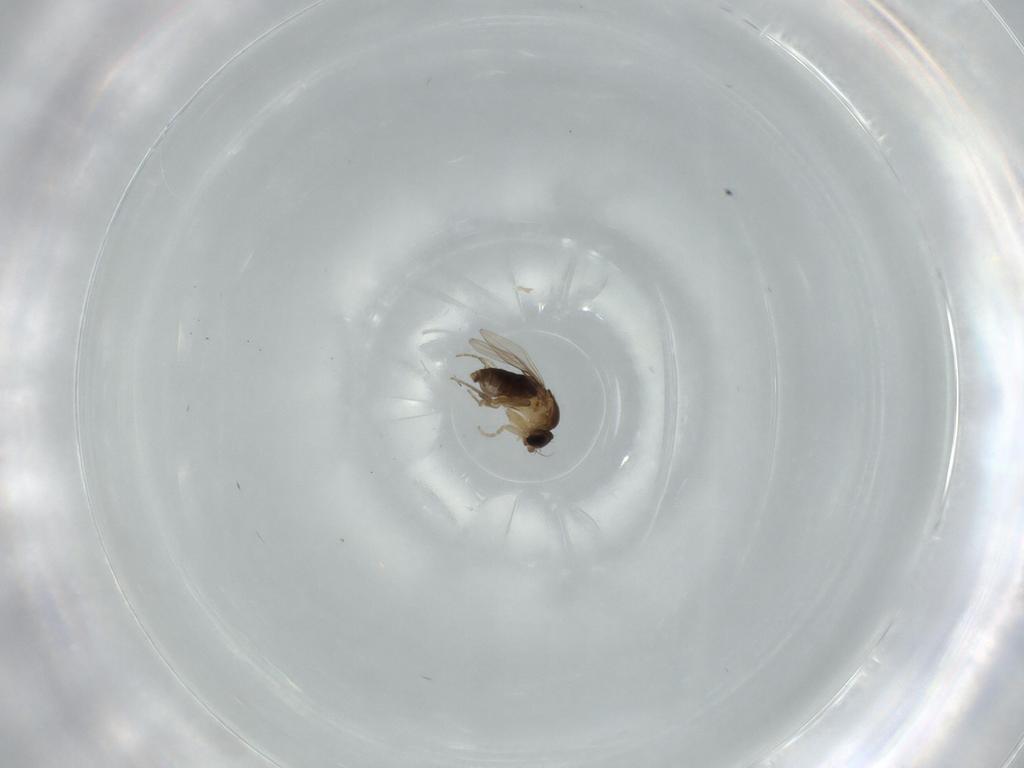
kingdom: Animalia
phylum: Arthropoda
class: Insecta
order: Diptera
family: Phoridae
